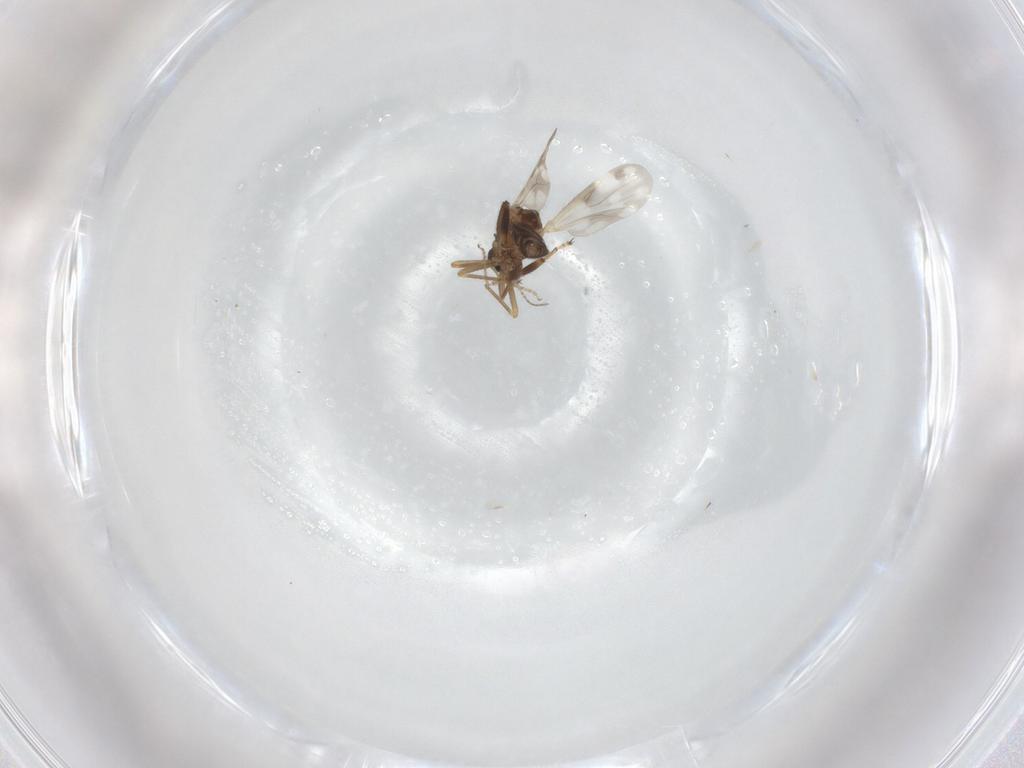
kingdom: Animalia
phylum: Arthropoda
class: Insecta
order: Diptera
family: Ceratopogonidae
